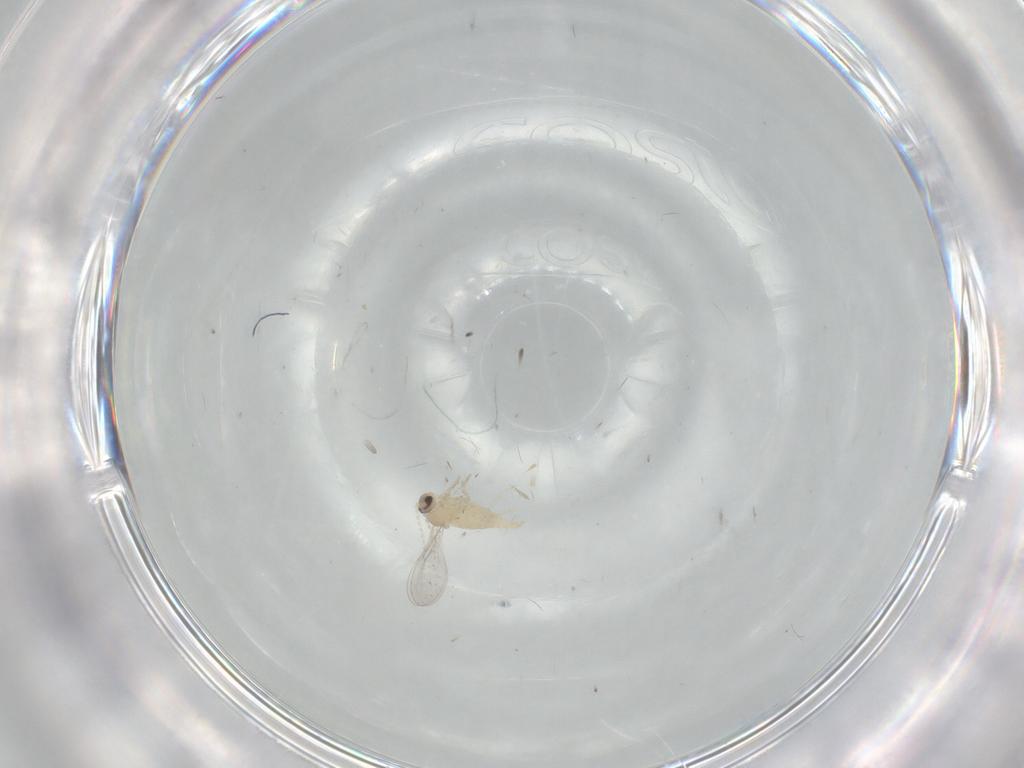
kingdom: Animalia
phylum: Arthropoda
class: Insecta
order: Diptera
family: Cecidomyiidae
